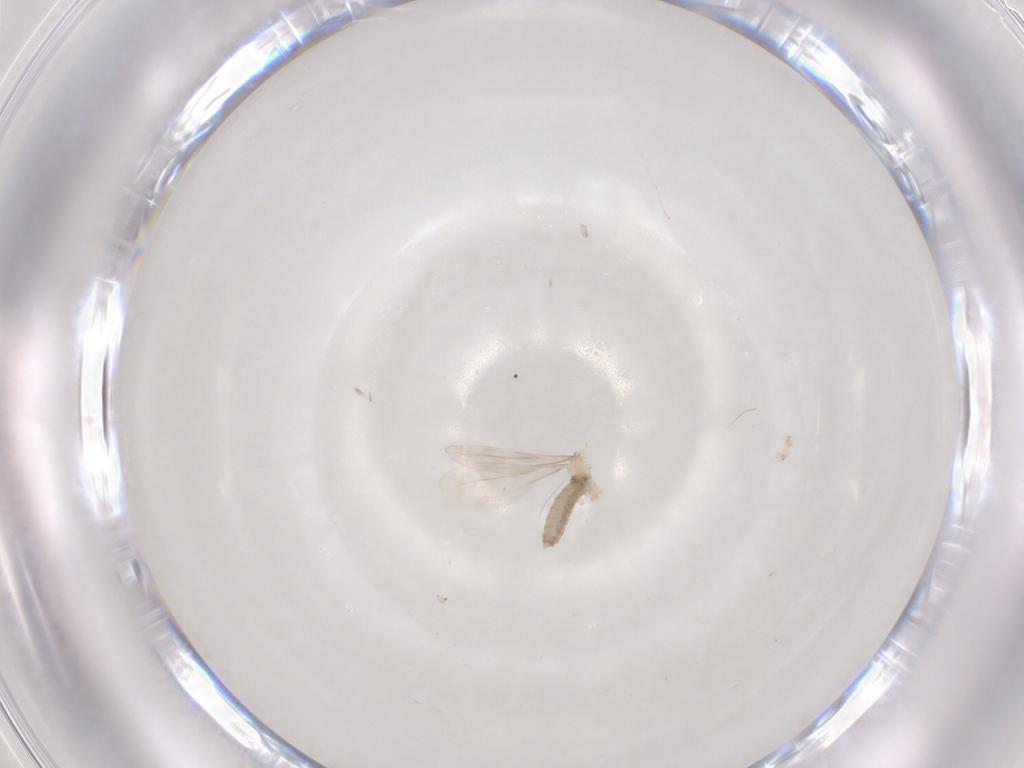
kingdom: Animalia
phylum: Arthropoda
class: Insecta
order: Diptera
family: Cecidomyiidae
